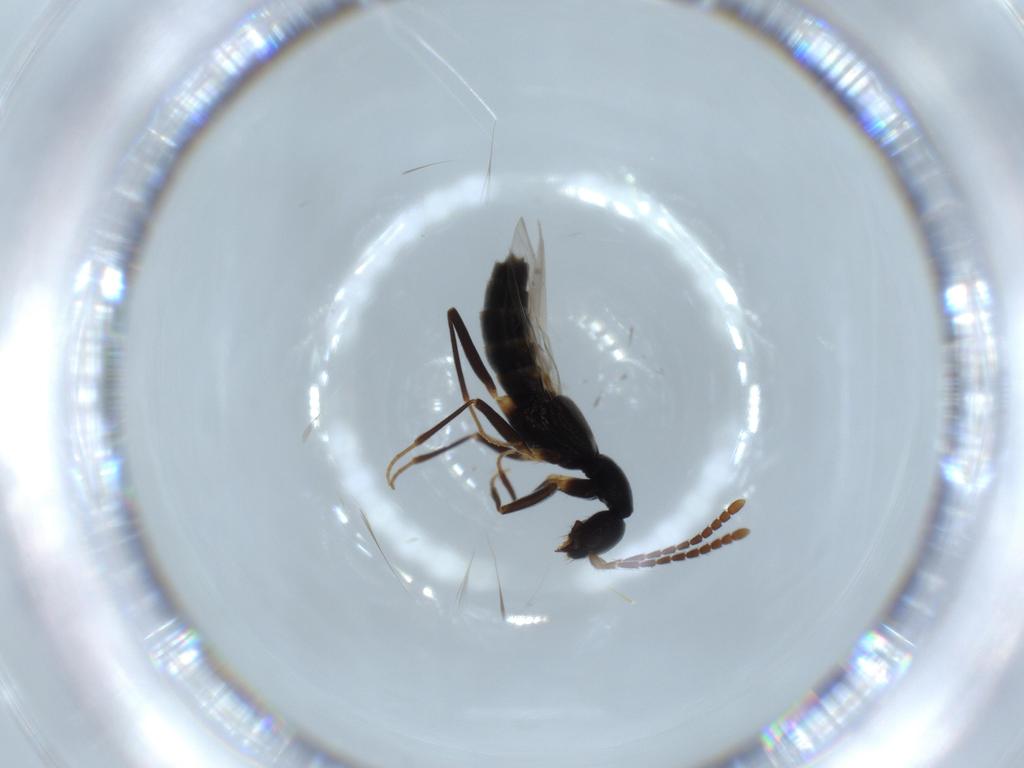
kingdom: Animalia
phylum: Arthropoda
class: Insecta
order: Coleoptera
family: Staphylinidae
